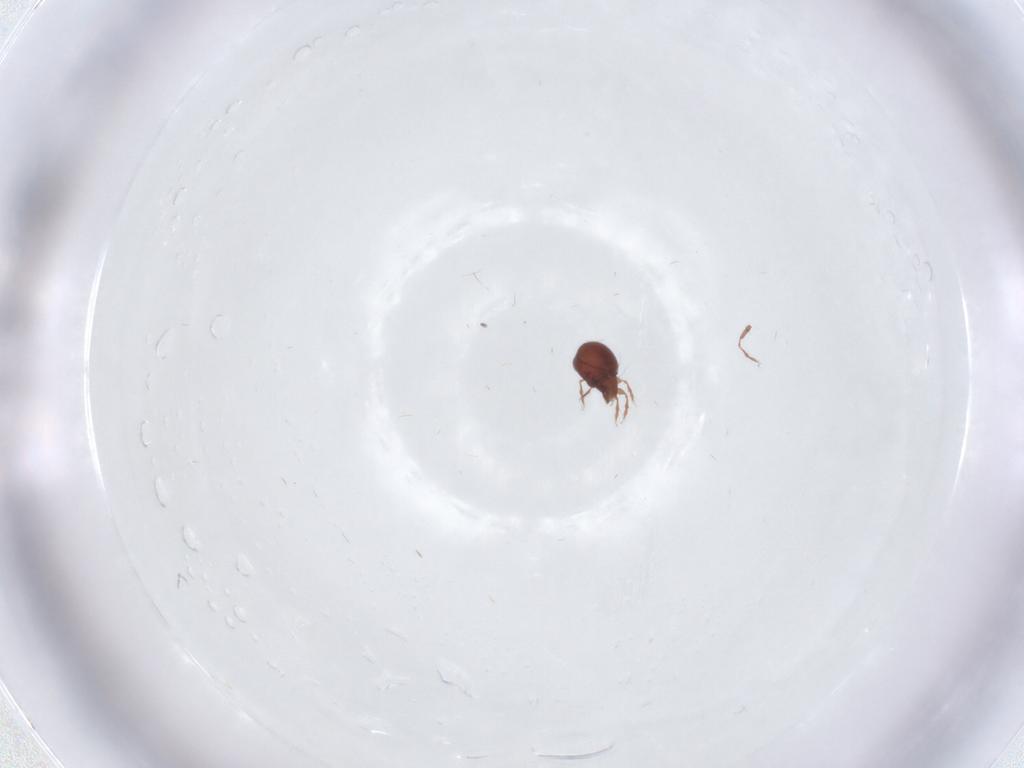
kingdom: Animalia
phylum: Arthropoda
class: Arachnida
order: Sarcoptiformes
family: Oribatulidae
